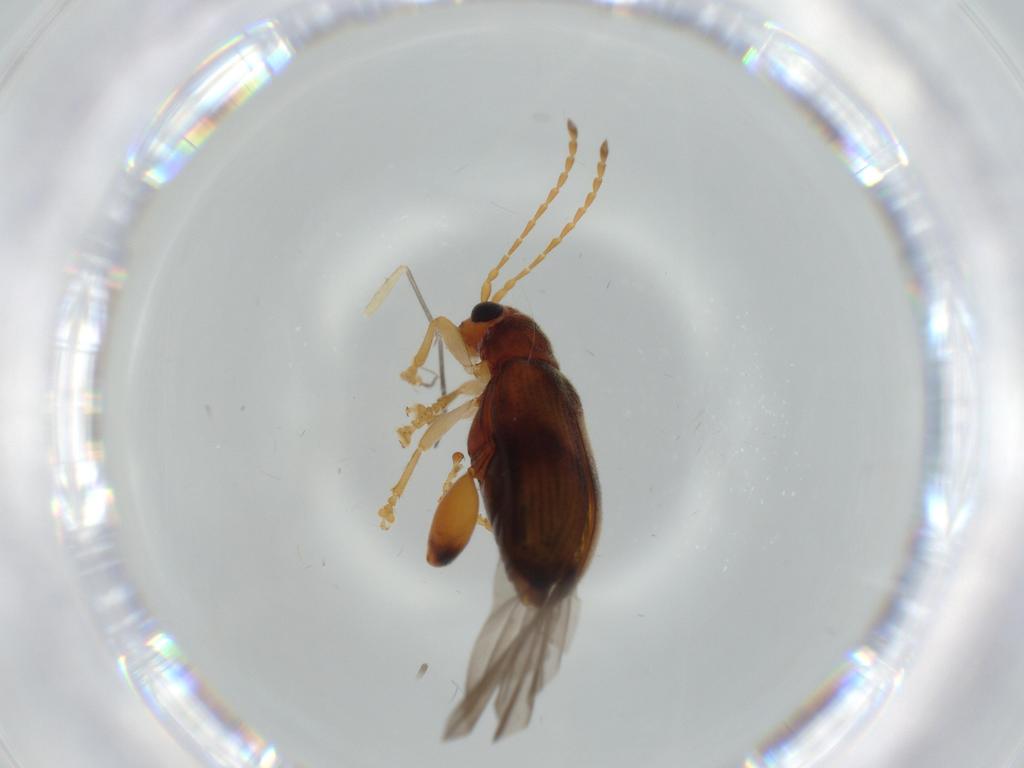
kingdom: Animalia
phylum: Arthropoda
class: Insecta
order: Coleoptera
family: Chrysomelidae
